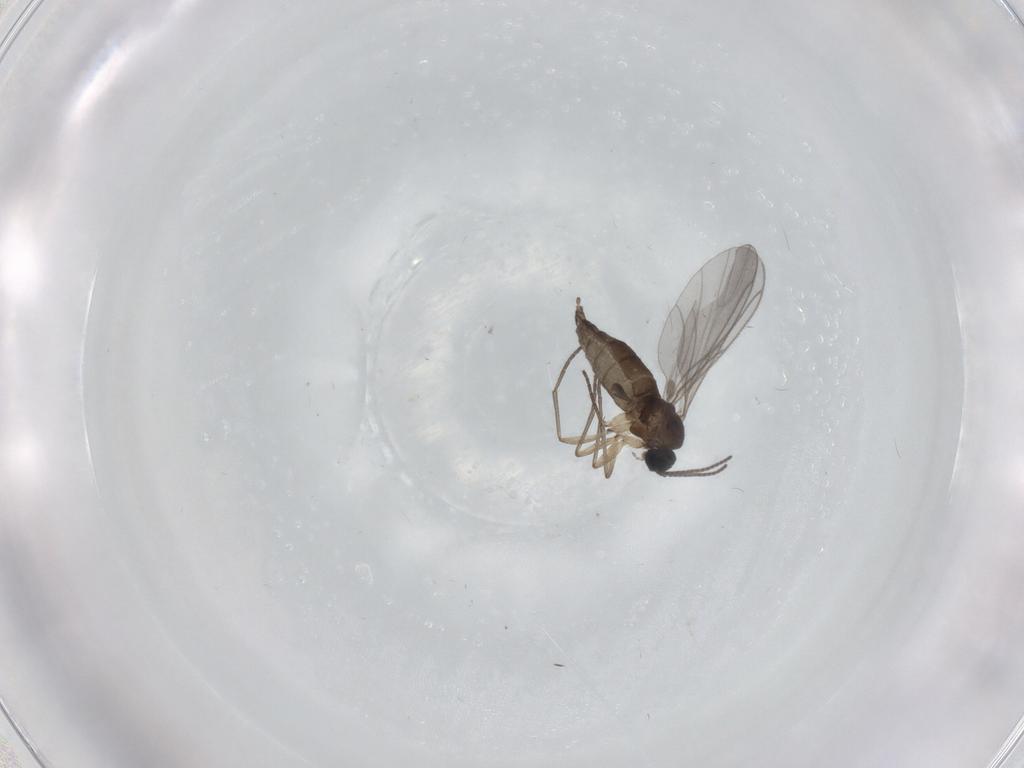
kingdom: Animalia
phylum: Arthropoda
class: Insecta
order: Diptera
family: Sciaridae
